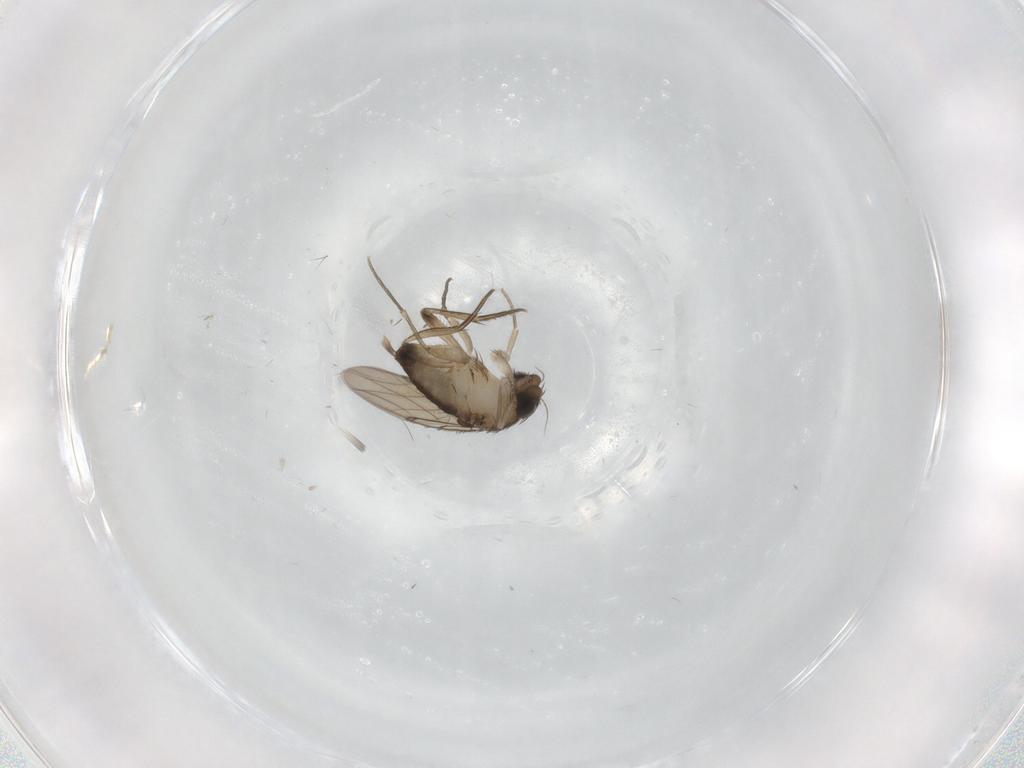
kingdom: Animalia
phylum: Arthropoda
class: Insecta
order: Diptera
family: Phoridae
